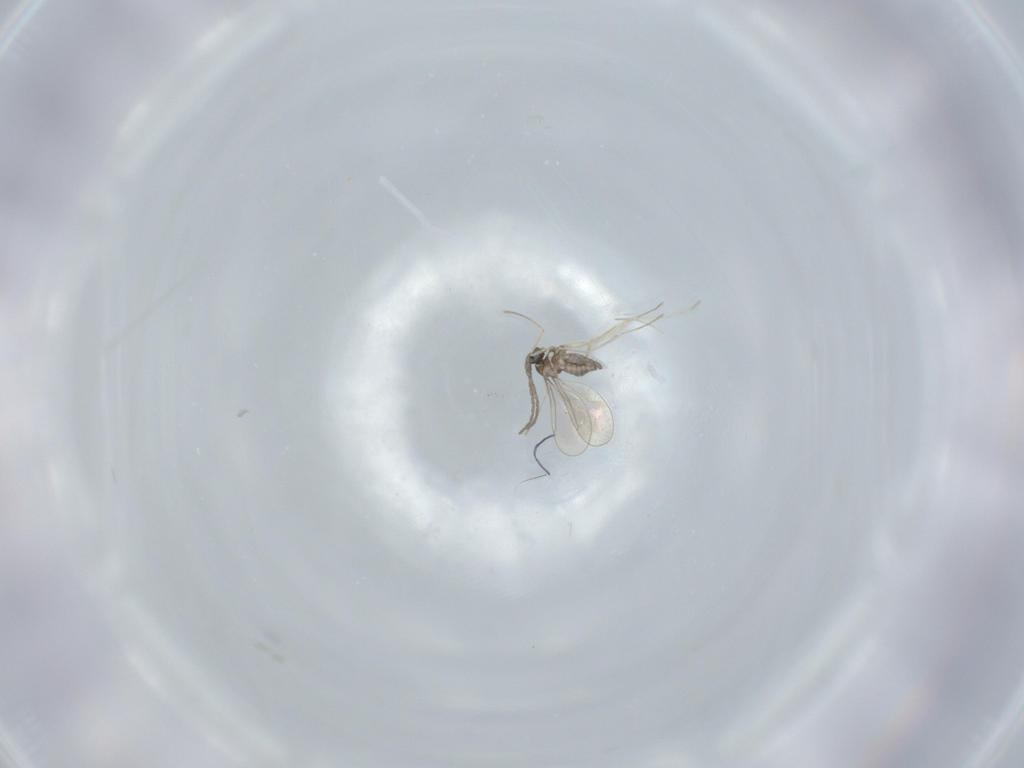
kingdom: Animalia
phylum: Arthropoda
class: Insecta
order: Diptera
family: Cecidomyiidae
